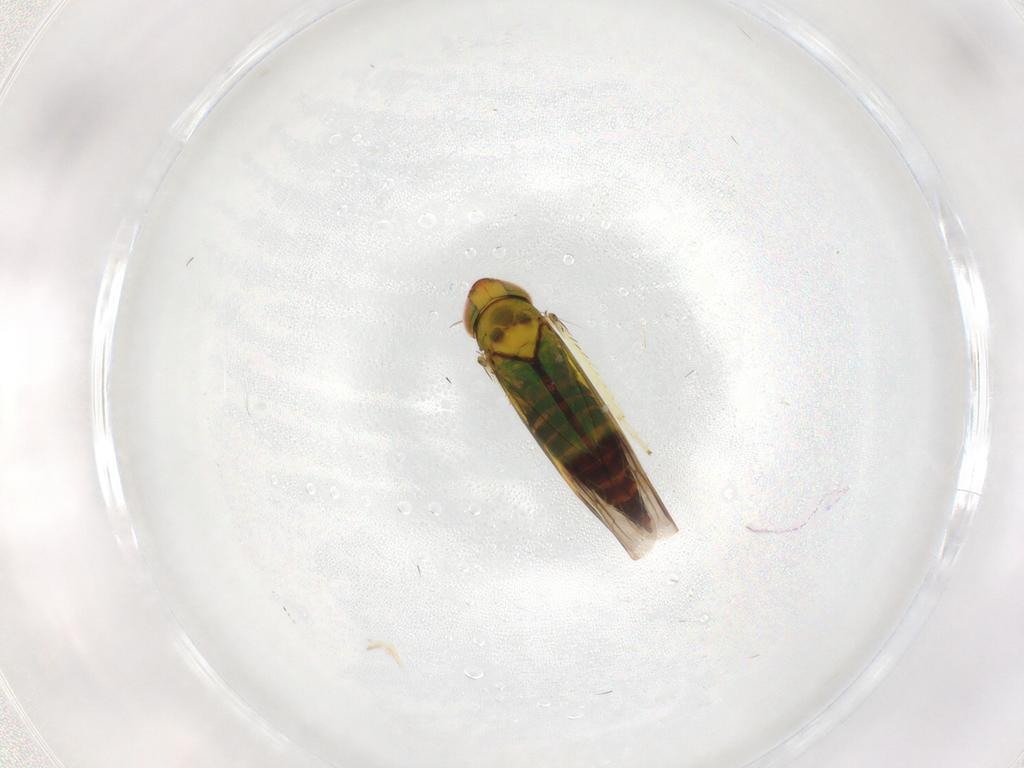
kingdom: Animalia
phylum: Arthropoda
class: Insecta
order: Hemiptera
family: Cicadellidae
